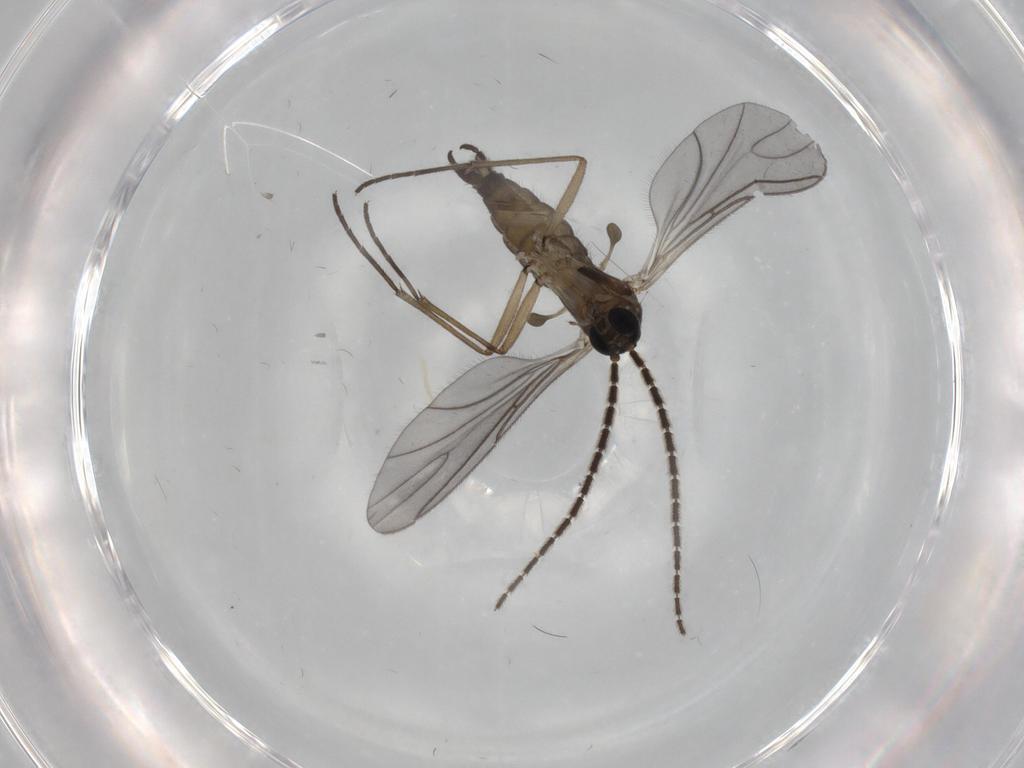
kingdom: Animalia
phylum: Arthropoda
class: Insecta
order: Diptera
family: Sciaridae
